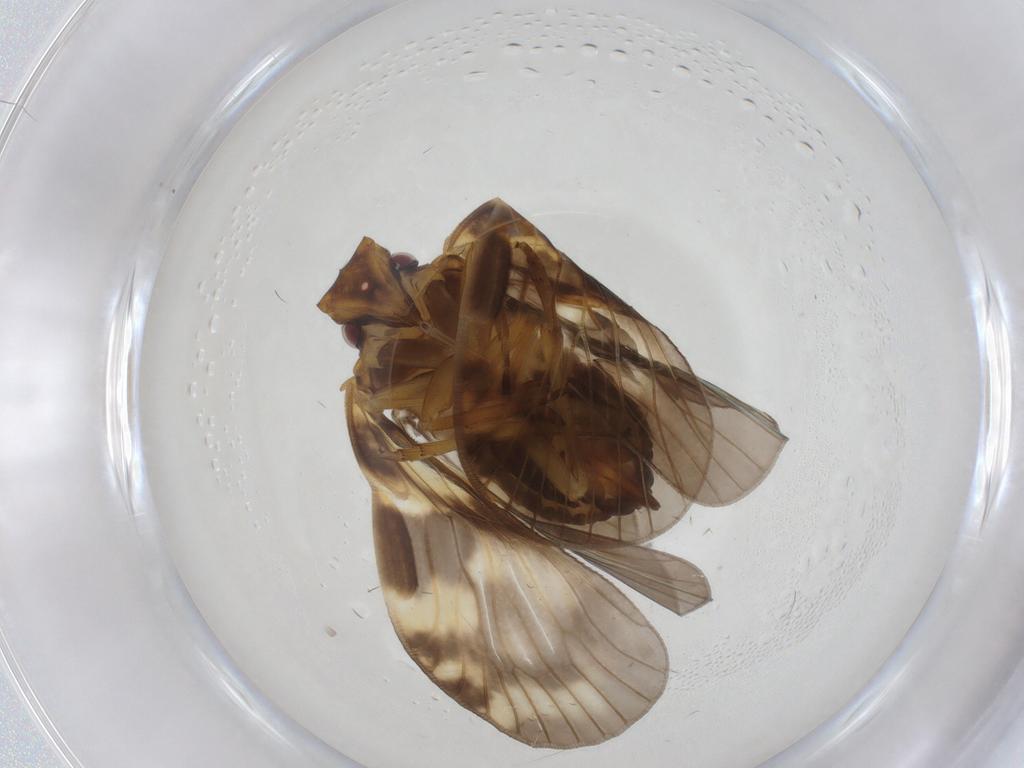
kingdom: Animalia
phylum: Arthropoda
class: Insecta
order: Hemiptera
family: Cixiidae
